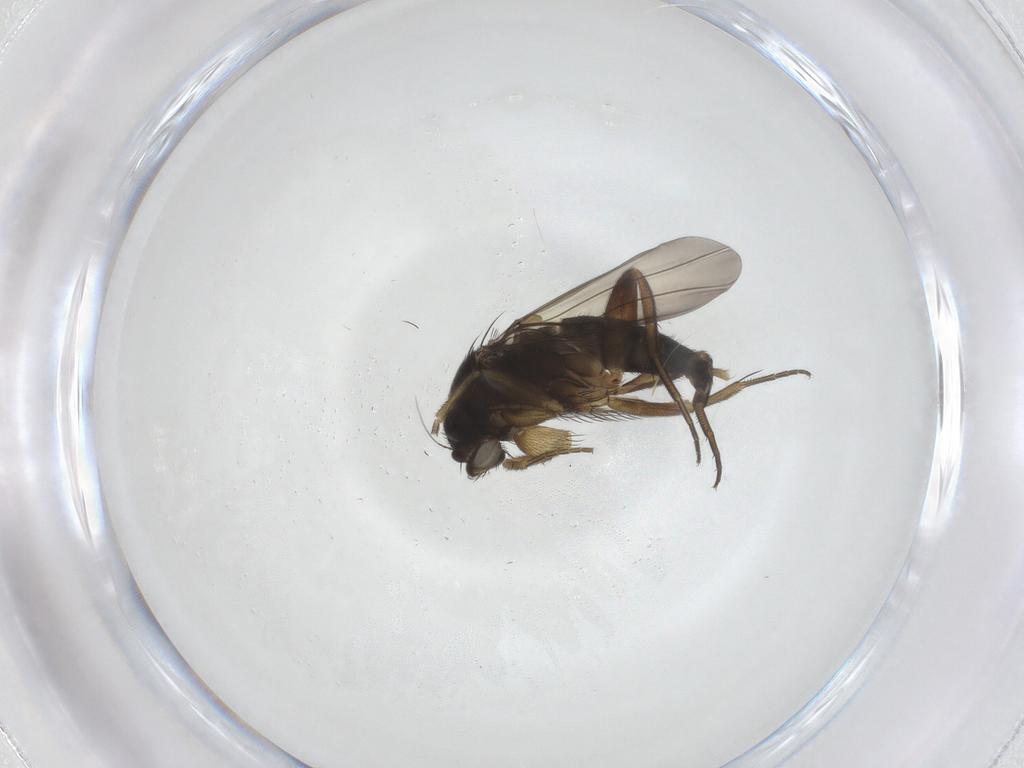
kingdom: Animalia
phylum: Arthropoda
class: Insecta
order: Diptera
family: Phoridae
